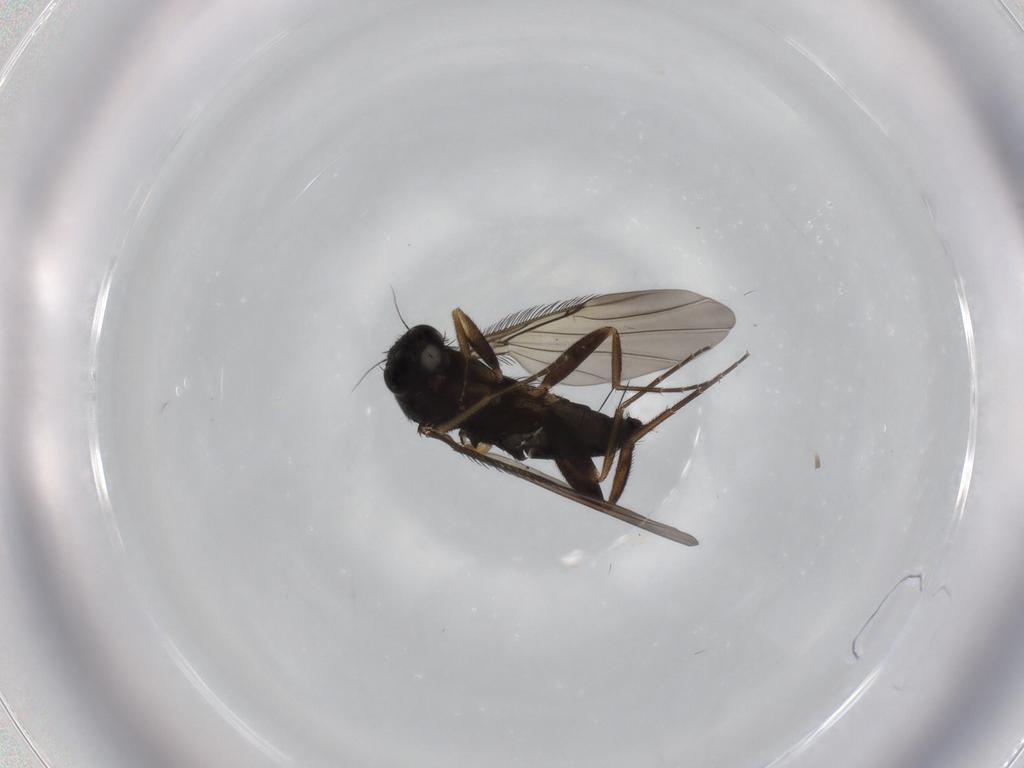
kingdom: Animalia
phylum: Arthropoda
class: Insecta
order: Diptera
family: Phoridae
